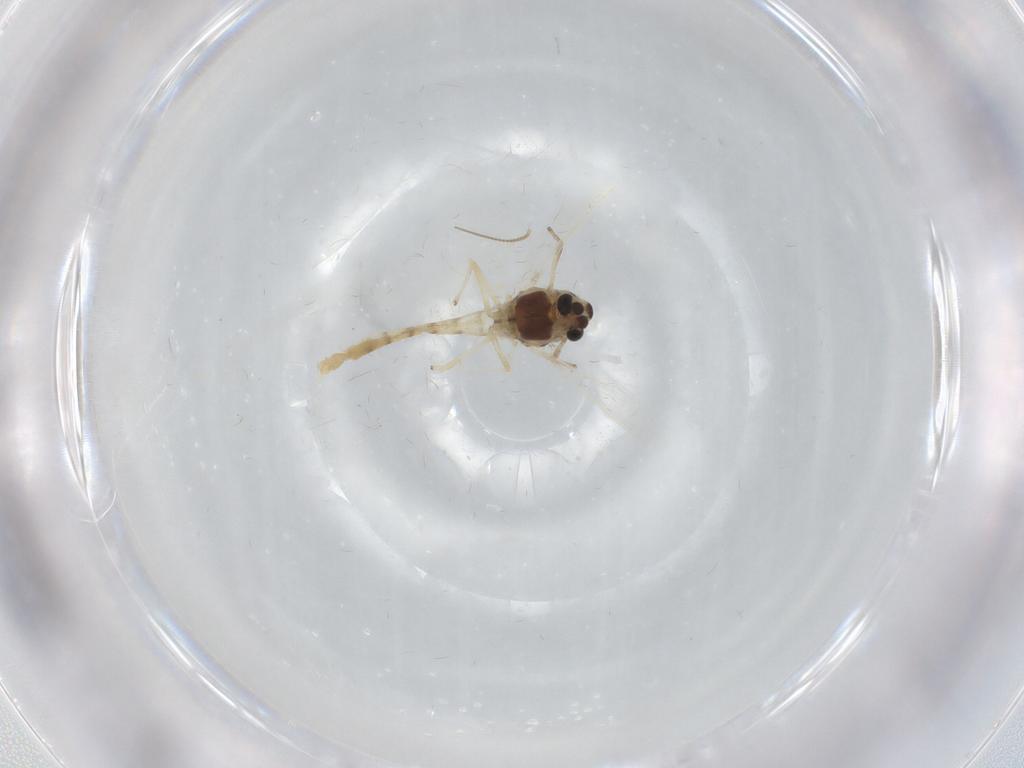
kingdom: Animalia
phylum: Arthropoda
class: Insecta
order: Diptera
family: Chironomidae
